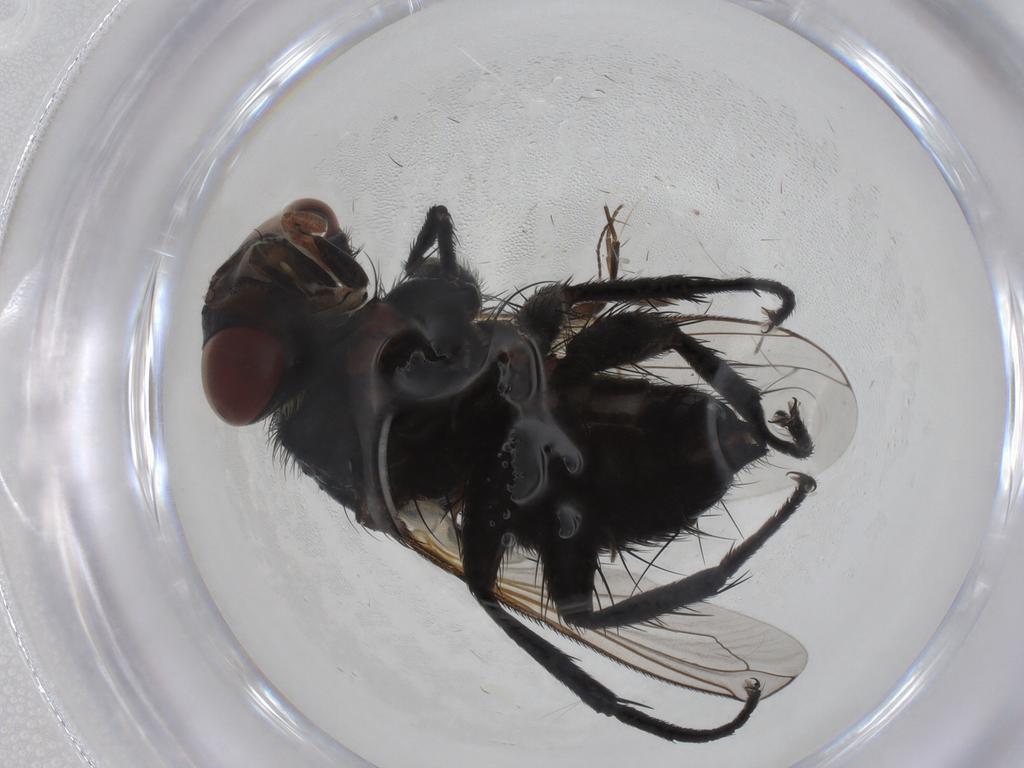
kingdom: Animalia
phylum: Arthropoda
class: Insecta
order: Diptera
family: Tachinidae
